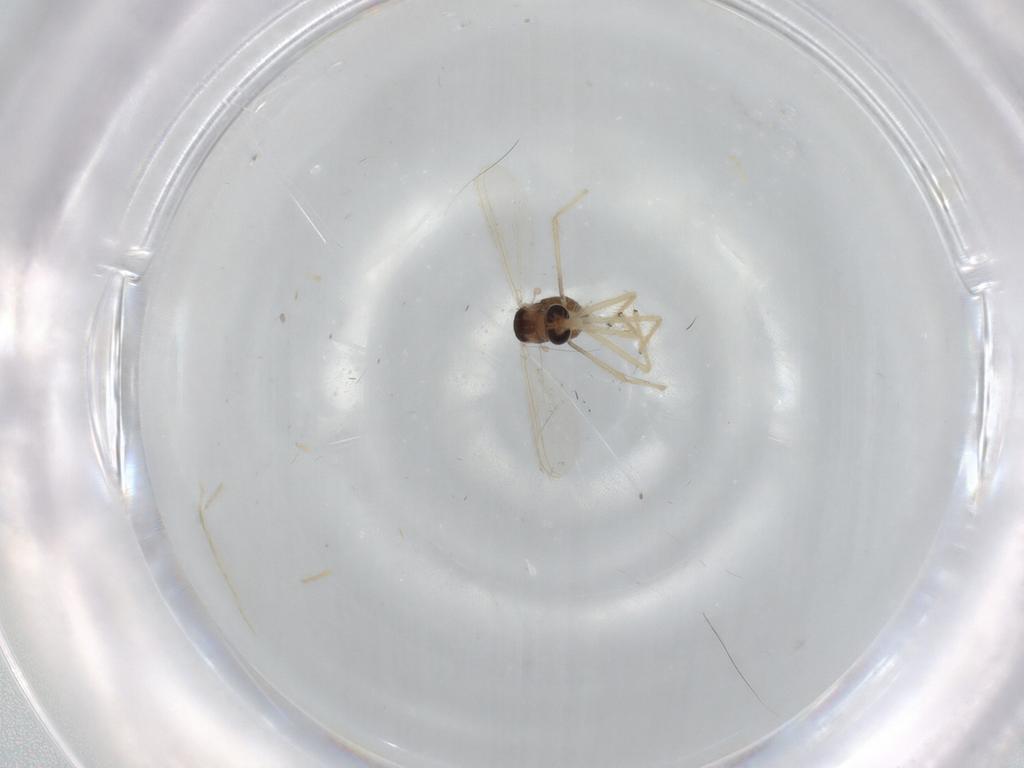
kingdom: Animalia
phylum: Arthropoda
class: Insecta
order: Diptera
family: Chironomidae
